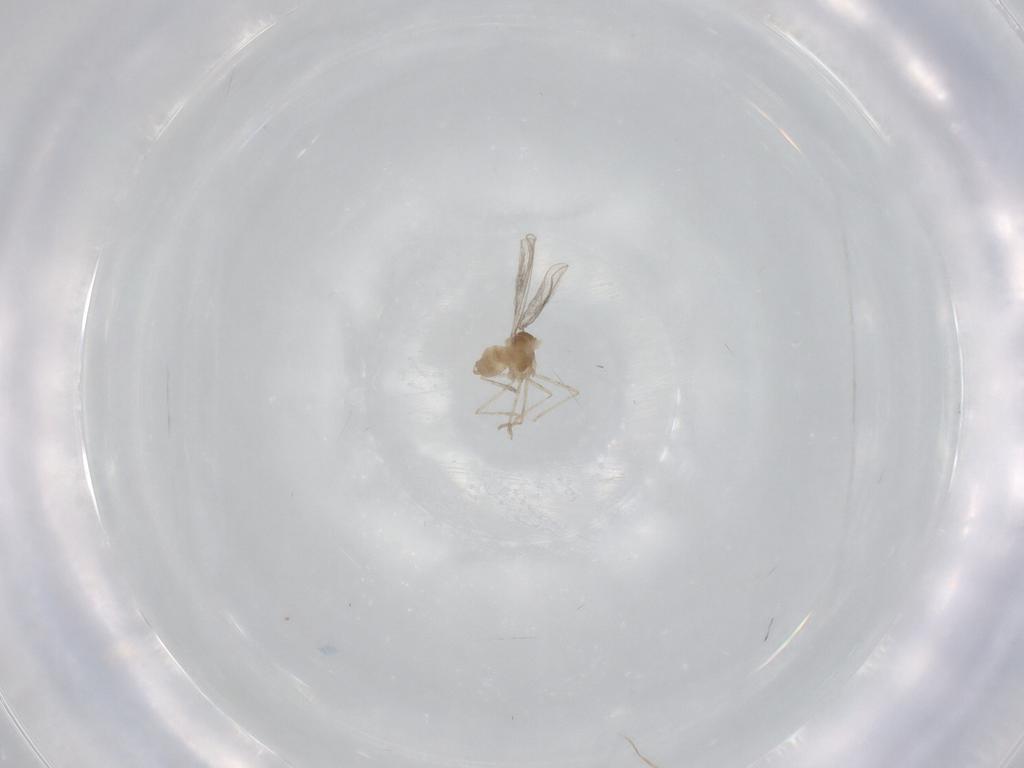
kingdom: Animalia
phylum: Arthropoda
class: Insecta
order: Diptera
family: Cecidomyiidae
